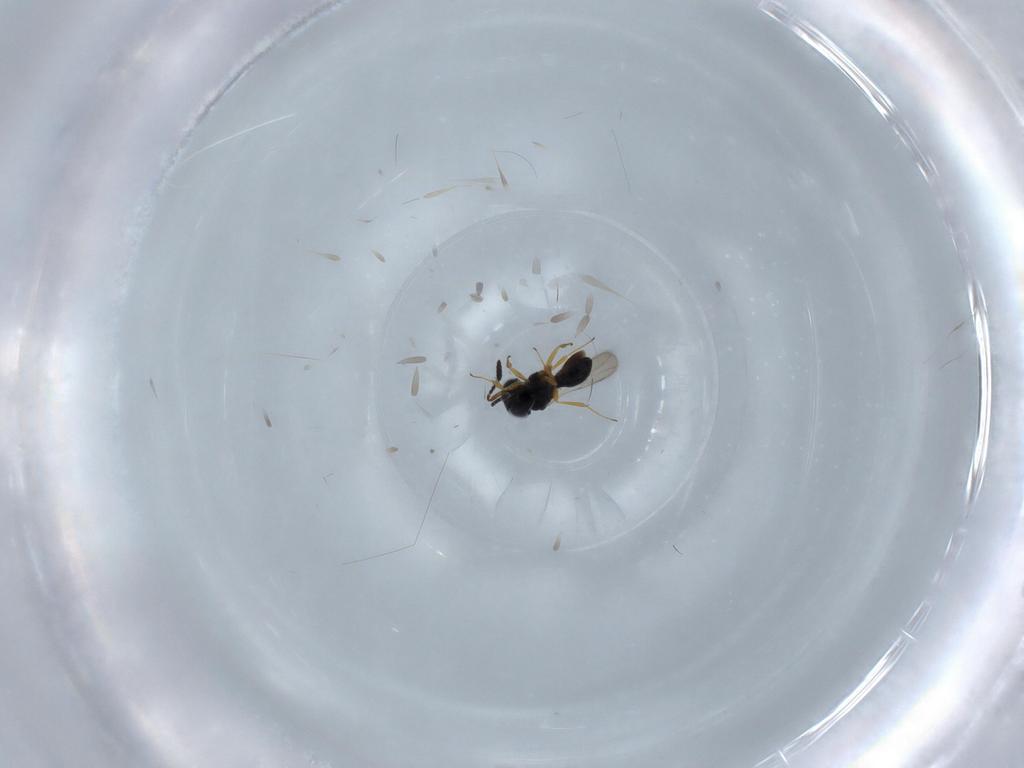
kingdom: Animalia
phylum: Arthropoda
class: Insecta
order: Hymenoptera
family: Scelionidae
